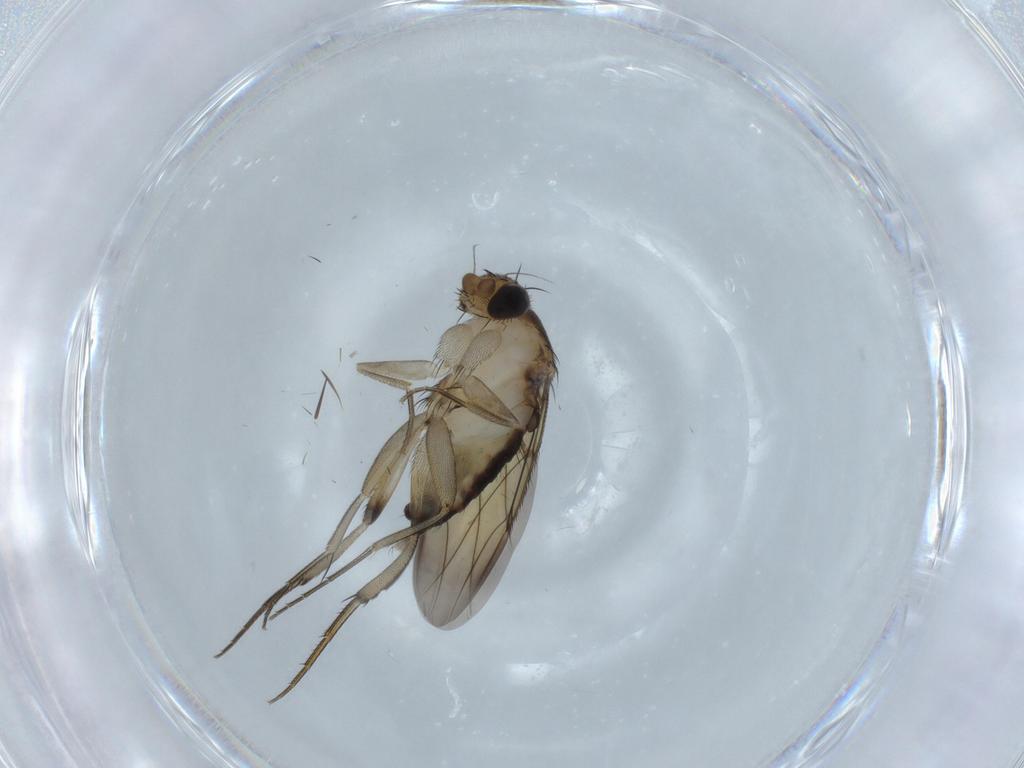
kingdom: Animalia
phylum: Arthropoda
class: Insecta
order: Diptera
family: Phoridae
